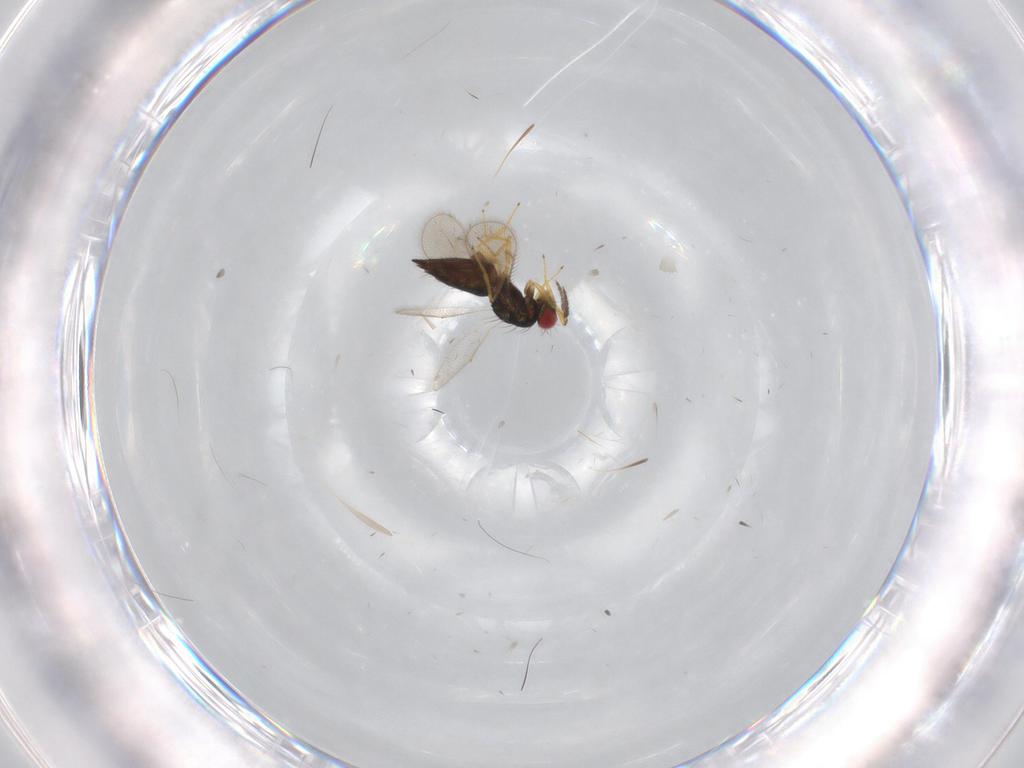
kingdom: Animalia
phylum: Arthropoda
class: Insecta
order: Hymenoptera
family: Eulophidae
